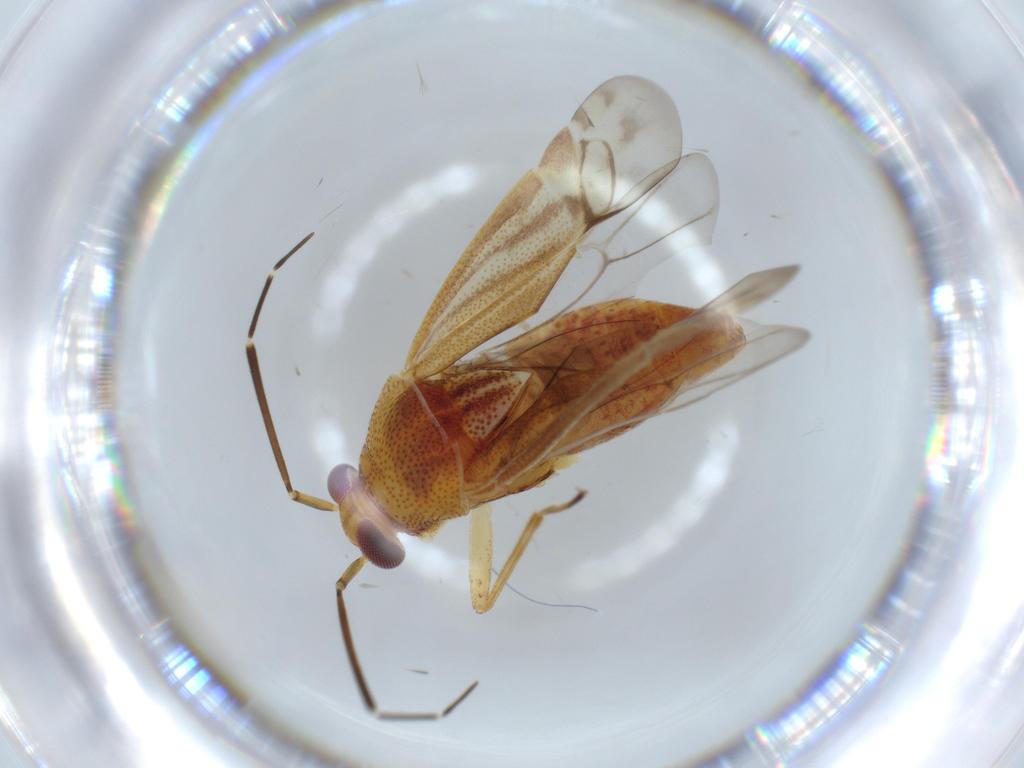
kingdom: Animalia
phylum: Arthropoda
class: Insecta
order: Hemiptera
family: Miridae
